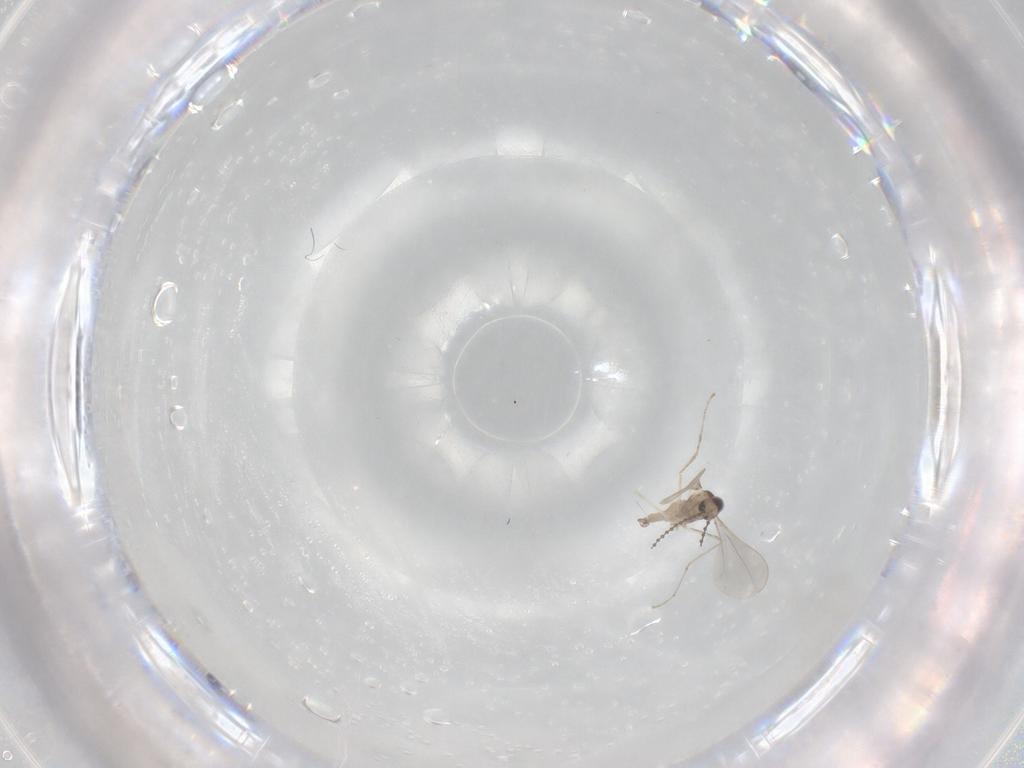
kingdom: Animalia
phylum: Arthropoda
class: Insecta
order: Diptera
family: Cecidomyiidae
